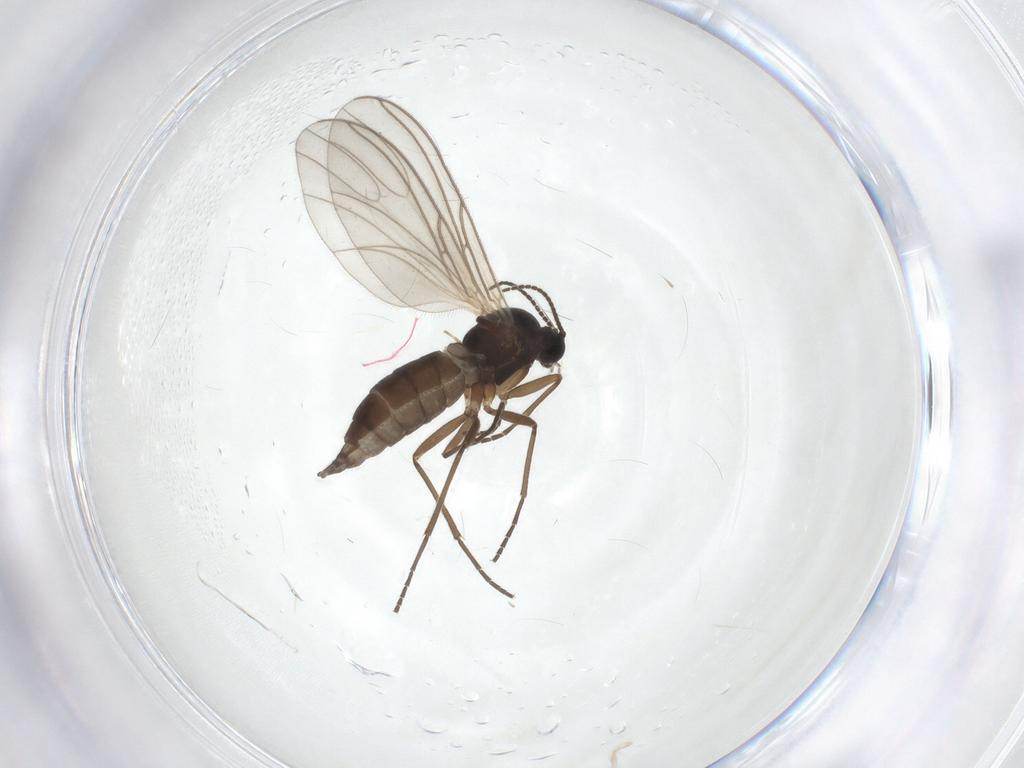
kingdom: Animalia
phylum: Arthropoda
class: Insecta
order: Diptera
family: Sciaridae
